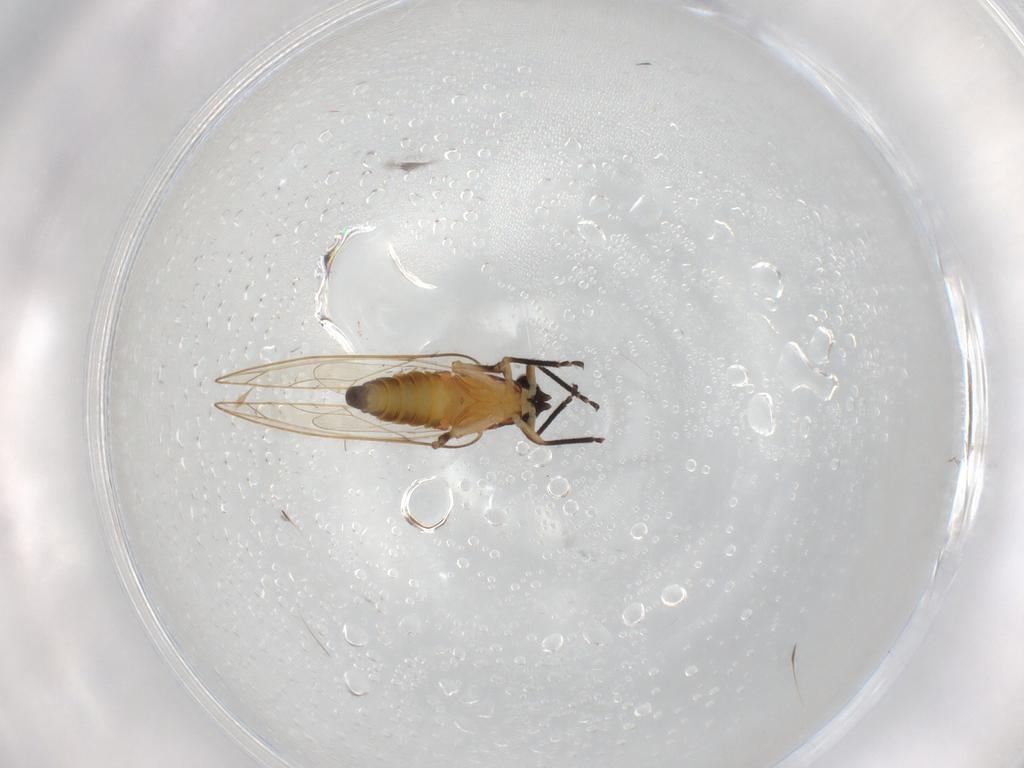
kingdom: Animalia
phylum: Arthropoda
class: Insecta
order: Hemiptera
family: Aleyrodidae
